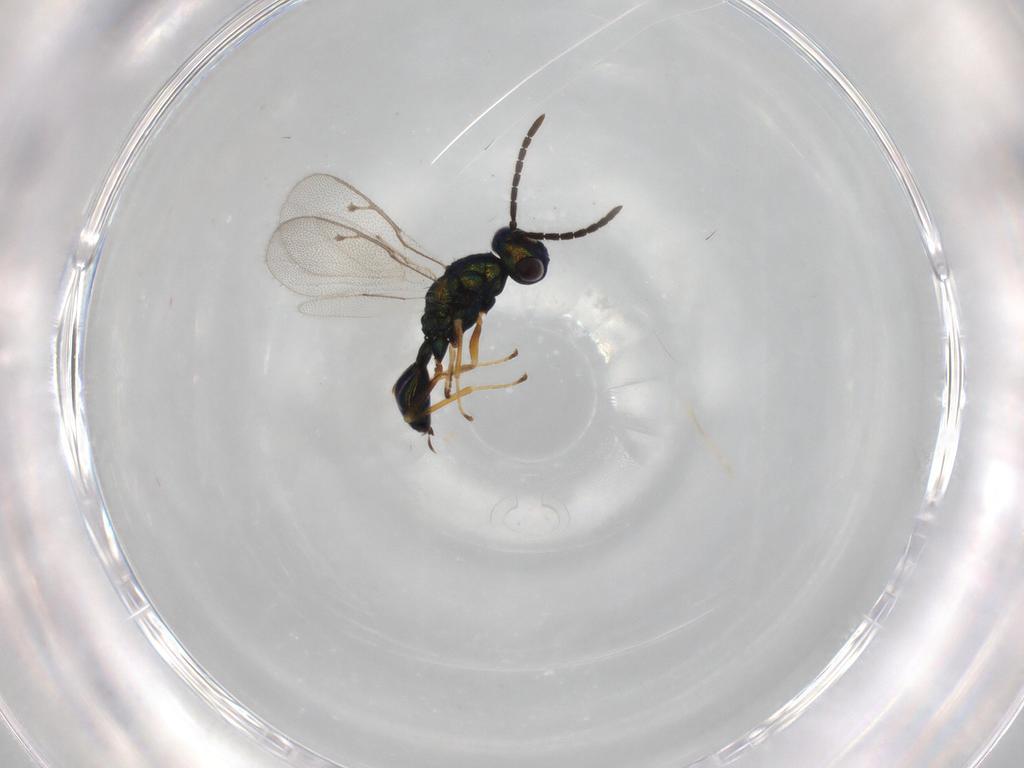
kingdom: Animalia
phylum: Arthropoda
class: Insecta
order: Hymenoptera
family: Pteromalidae
